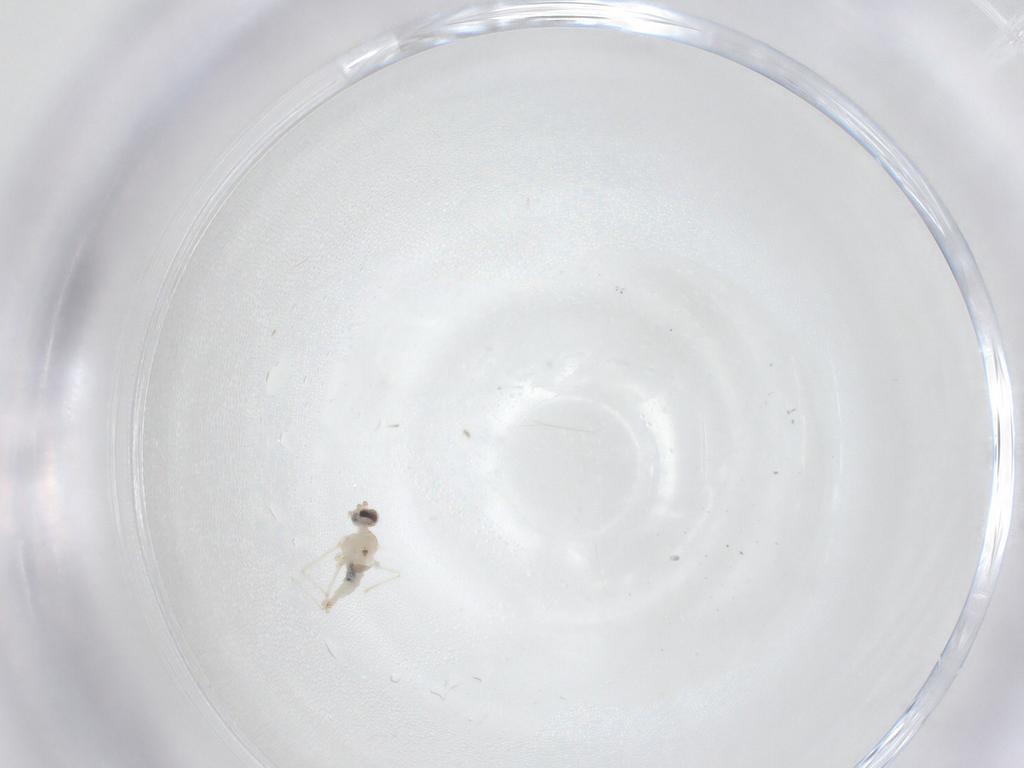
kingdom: Animalia
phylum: Arthropoda
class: Insecta
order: Diptera
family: Cecidomyiidae
